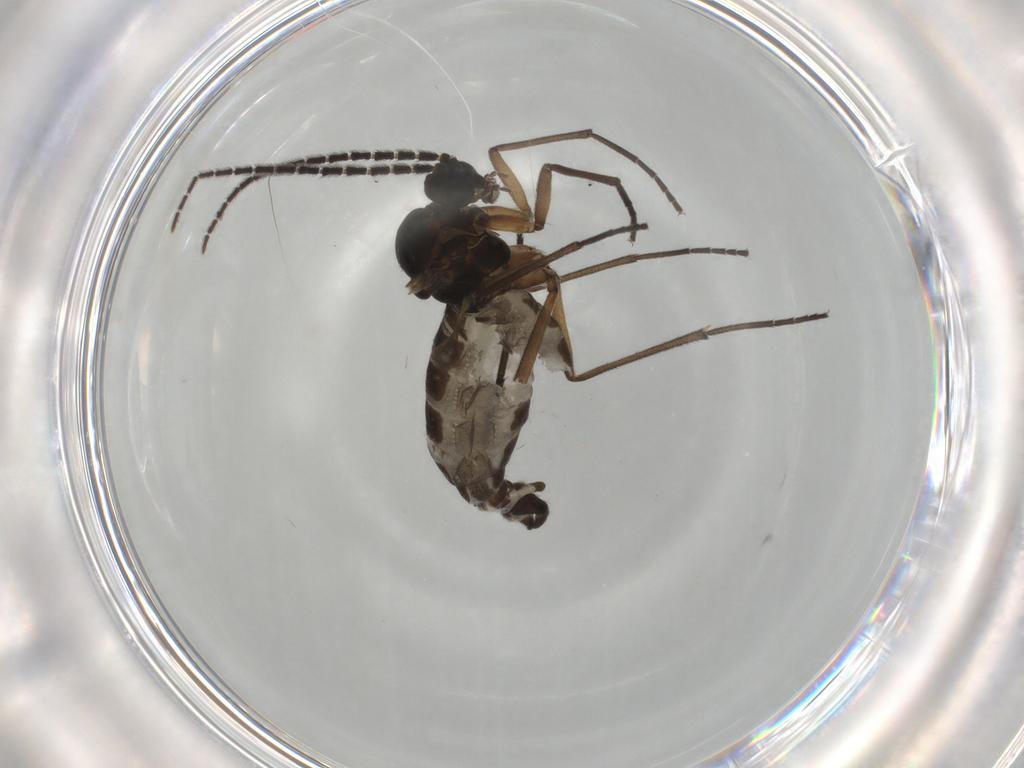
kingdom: Animalia
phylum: Arthropoda
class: Insecta
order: Diptera
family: Sciaridae
